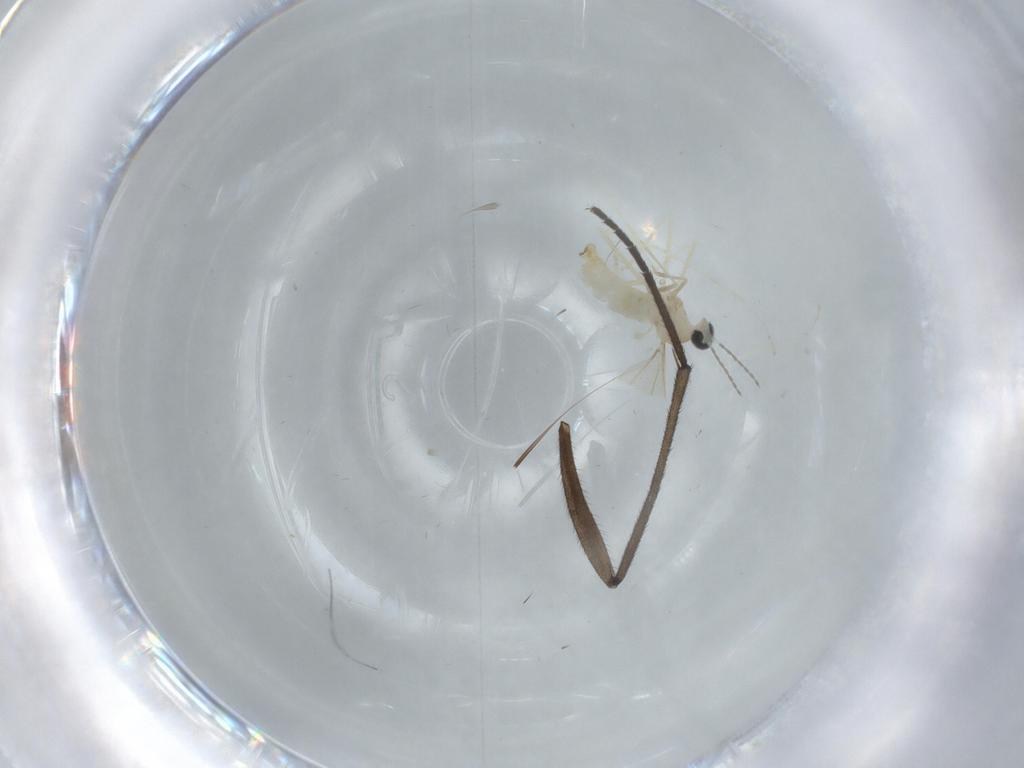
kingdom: Animalia
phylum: Arthropoda
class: Insecta
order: Diptera
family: Cecidomyiidae
